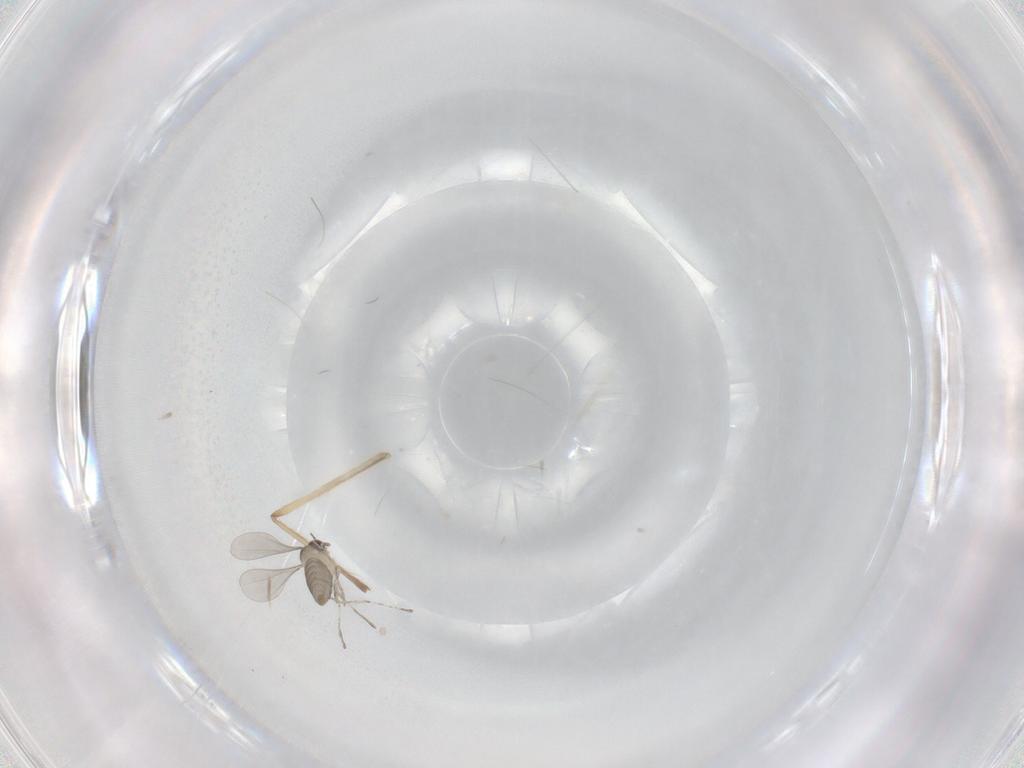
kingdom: Animalia
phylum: Arthropoda
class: Insecta
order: Diptera
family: Cecidomyiidae
